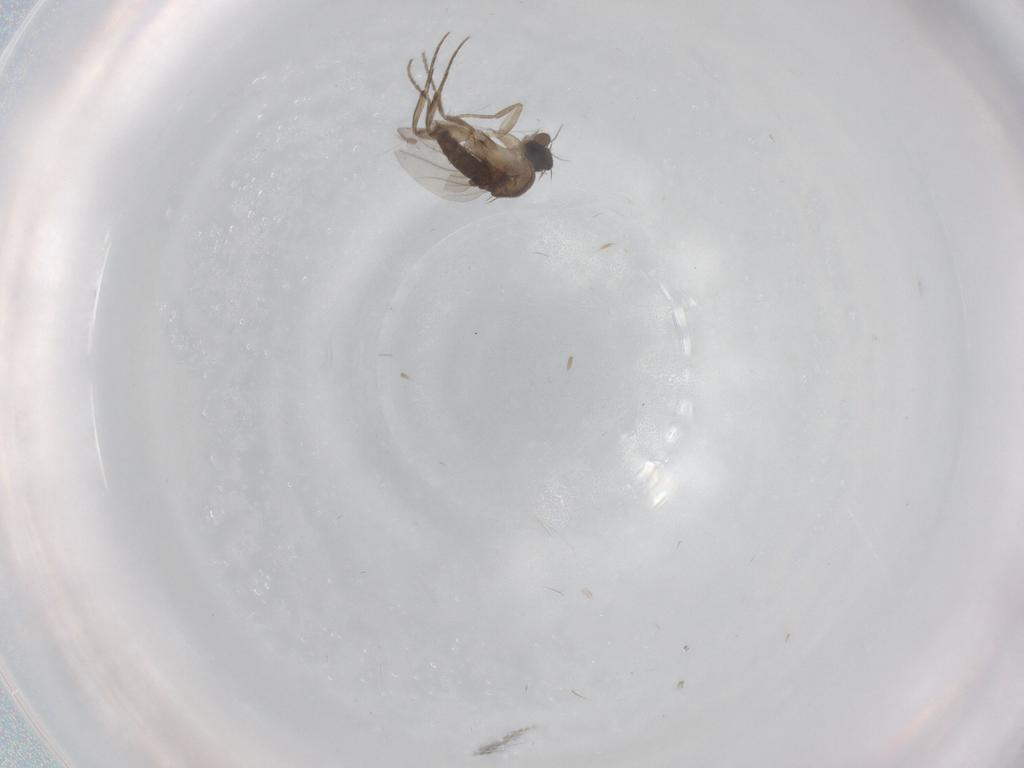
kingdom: Animalia
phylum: Arthropoda
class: Insecta
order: Diptera
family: Phoridae
